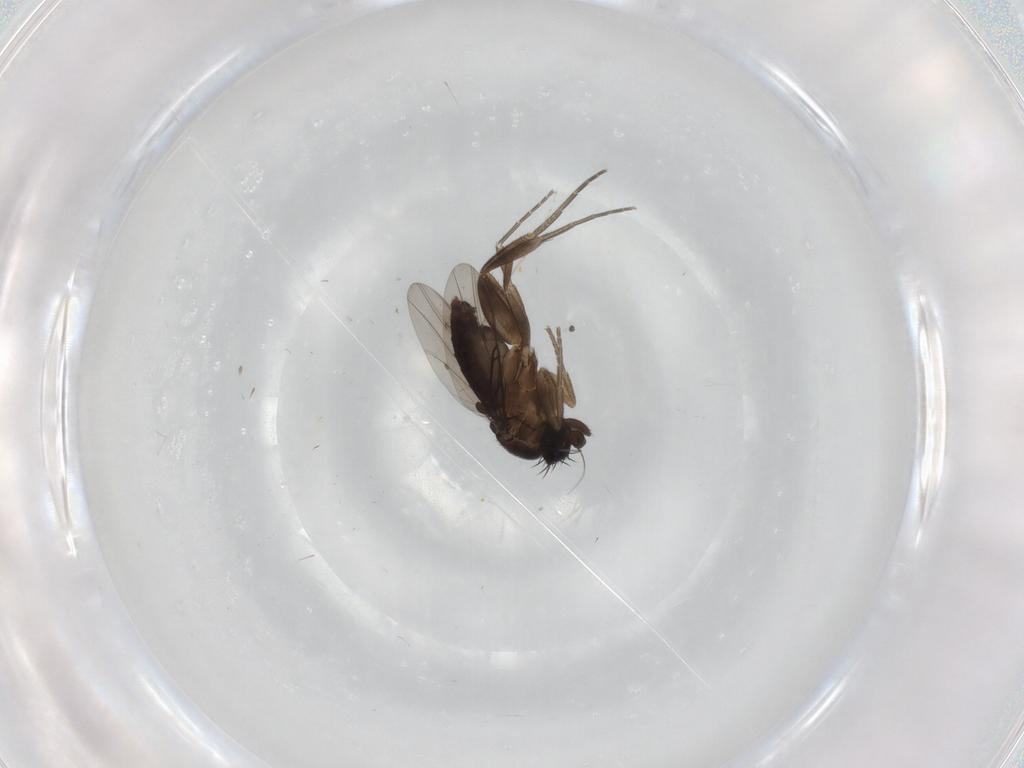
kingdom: Animalia
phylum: Arthropoda
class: Insecta
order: Diptera
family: Phoridae
